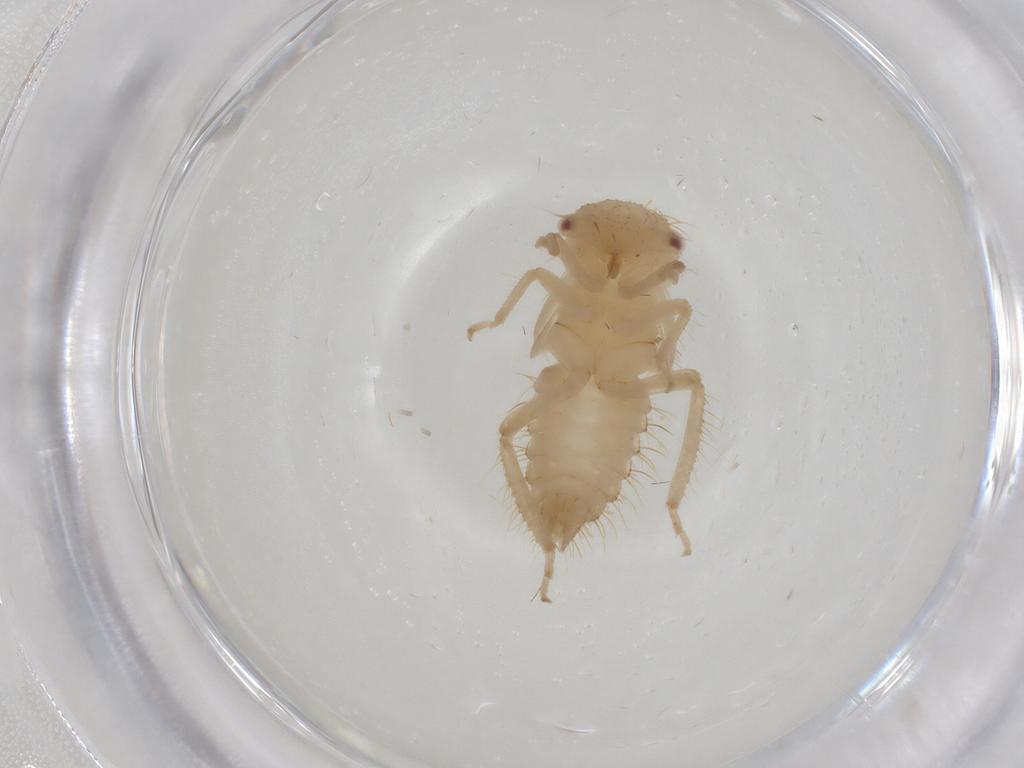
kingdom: Animalia
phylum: Arthropoda
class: Insecta
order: Hemiptera
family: Cicadellidae
